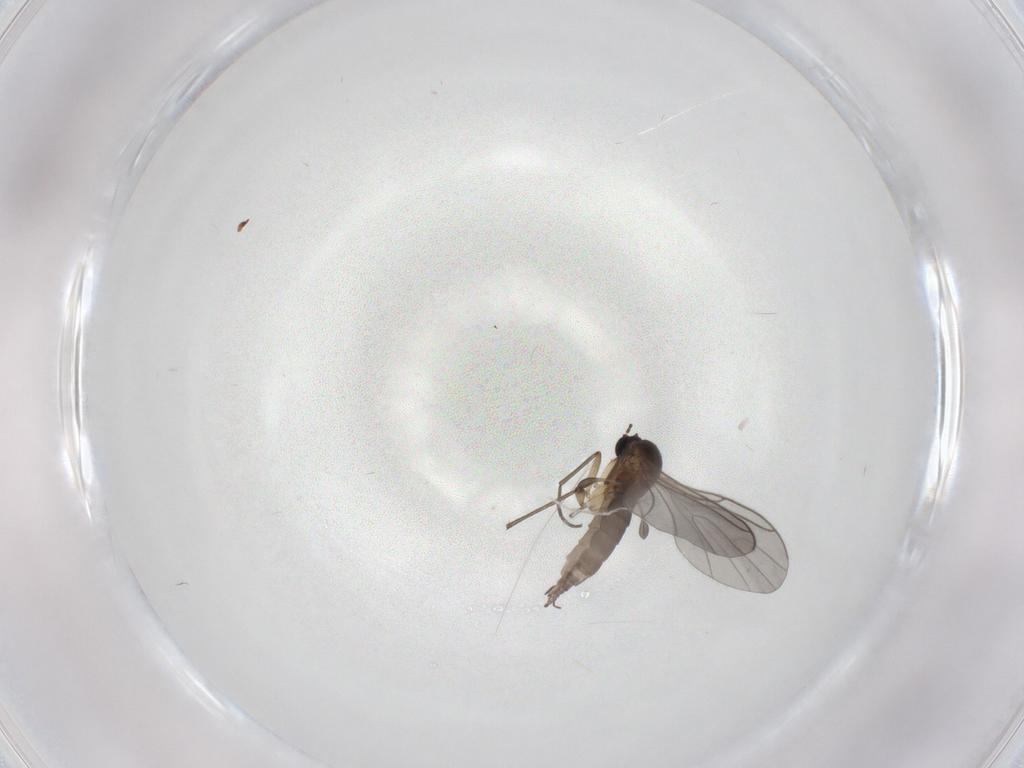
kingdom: Animalia
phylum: Arthropoda
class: Insecta
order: Diptera
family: Sciaridae
